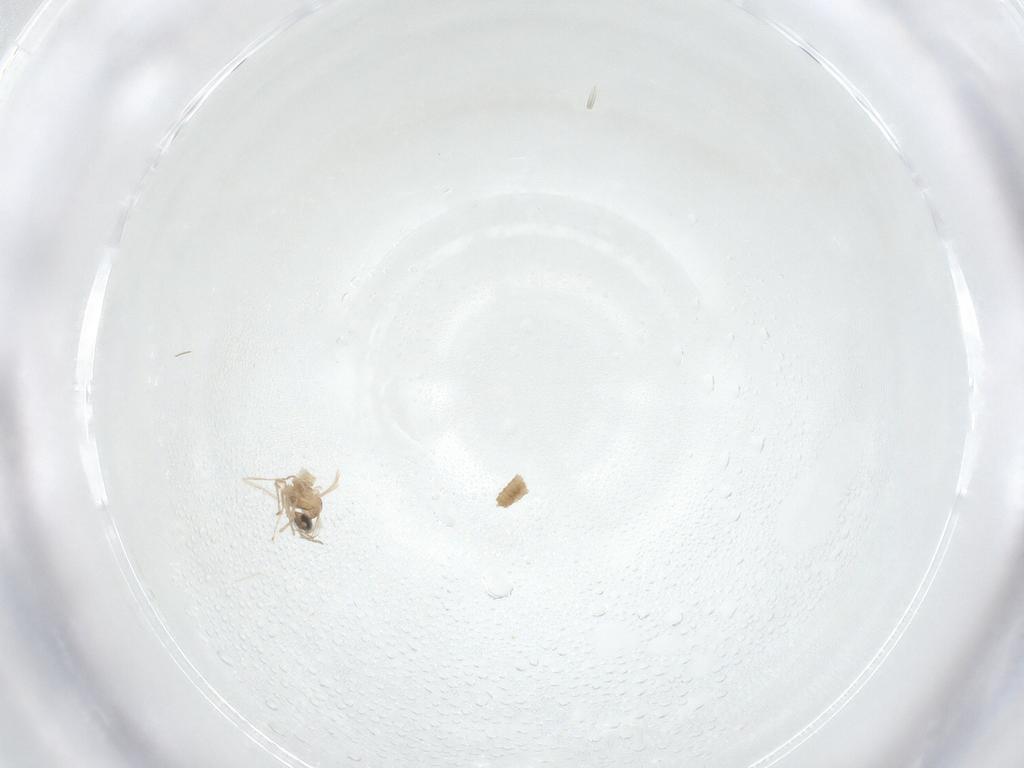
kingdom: Animalia
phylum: Arthropoda
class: Insecta
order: Diptera
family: Cecidomyiidae
